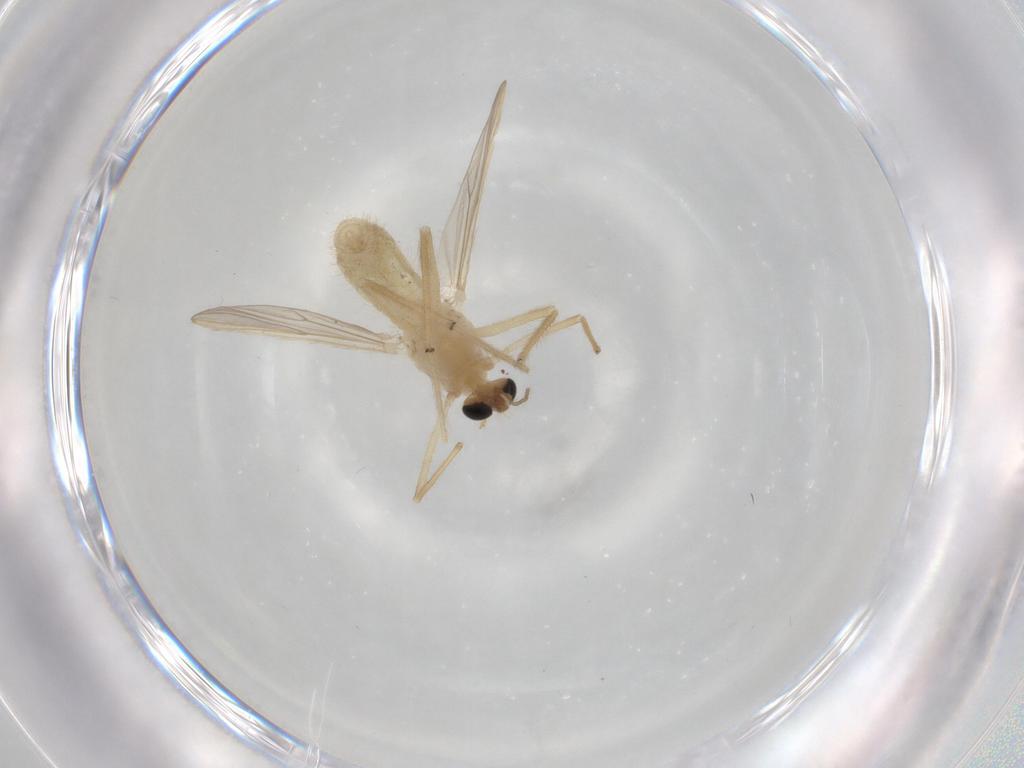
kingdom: Animalia
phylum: Arthropoda
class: Insecta
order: Diptera
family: Chironomidae
